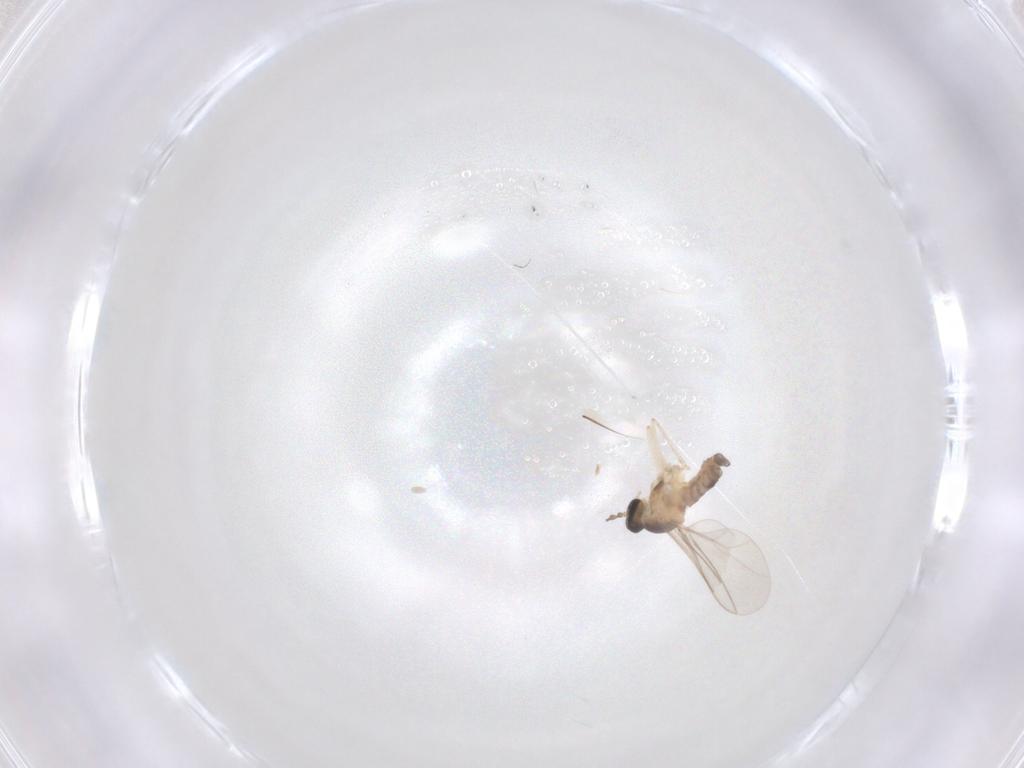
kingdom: Animalia
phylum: Arthropoda
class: Insecta
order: Diptera
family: Cecidomyiidae
